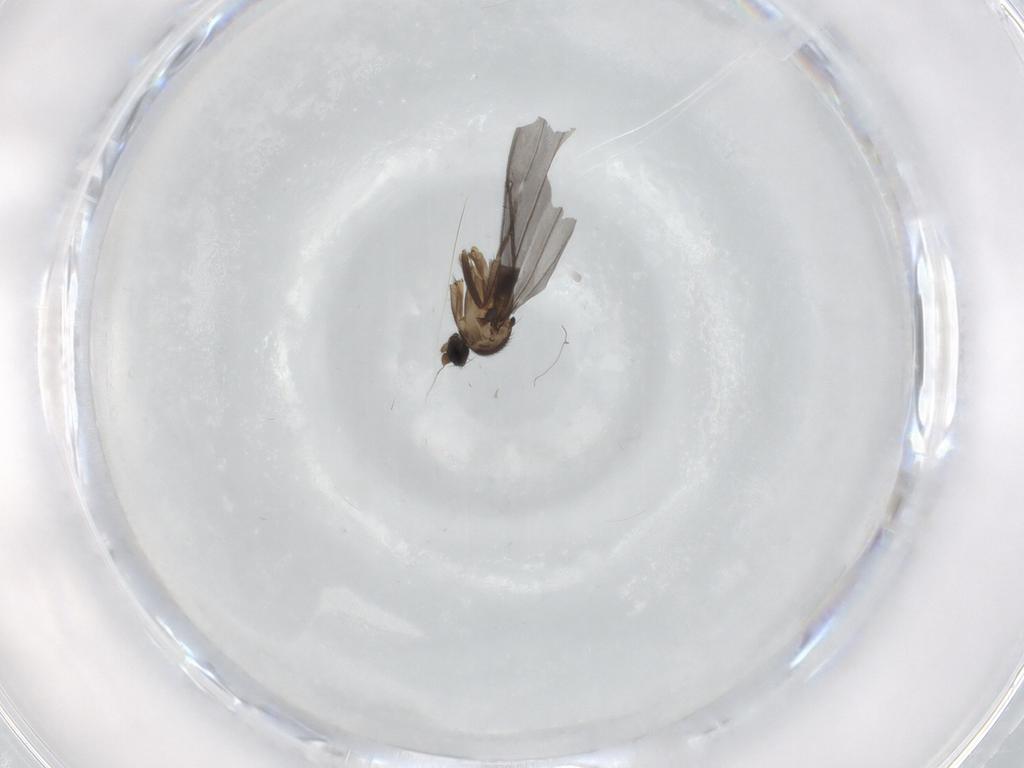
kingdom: Animalia
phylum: Arthropoda
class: Insecta
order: Diptera
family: Phoridae
